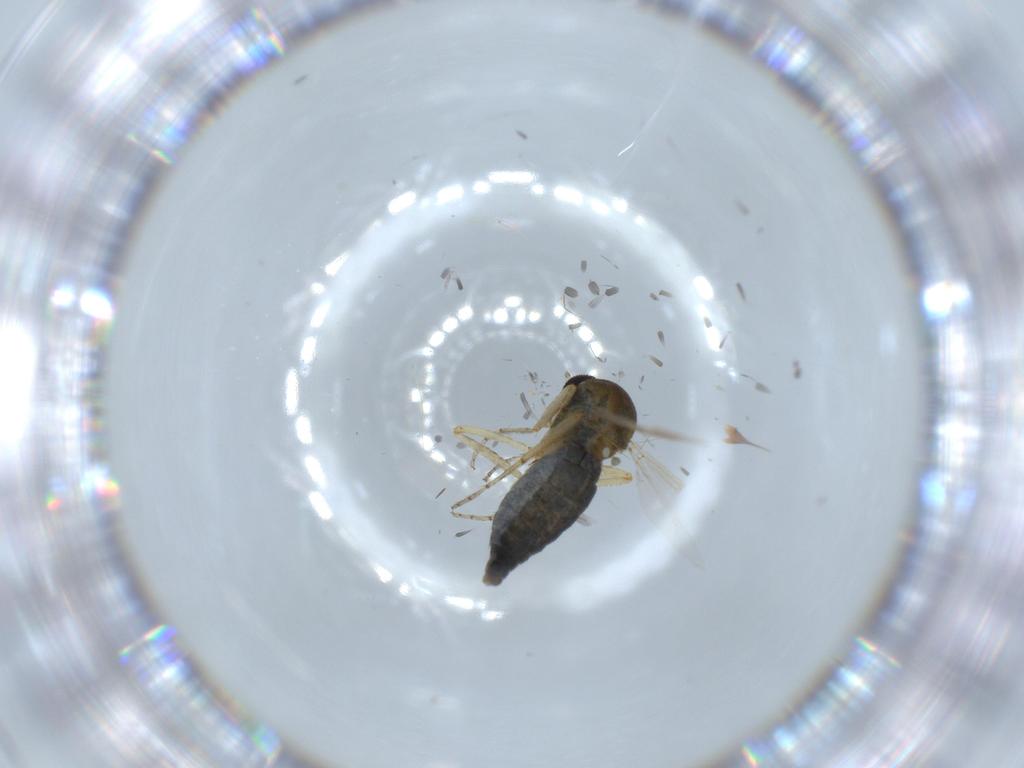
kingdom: Animalia
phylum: Arthropoda
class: Insecta
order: Diptera
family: Ceratopogonidae
